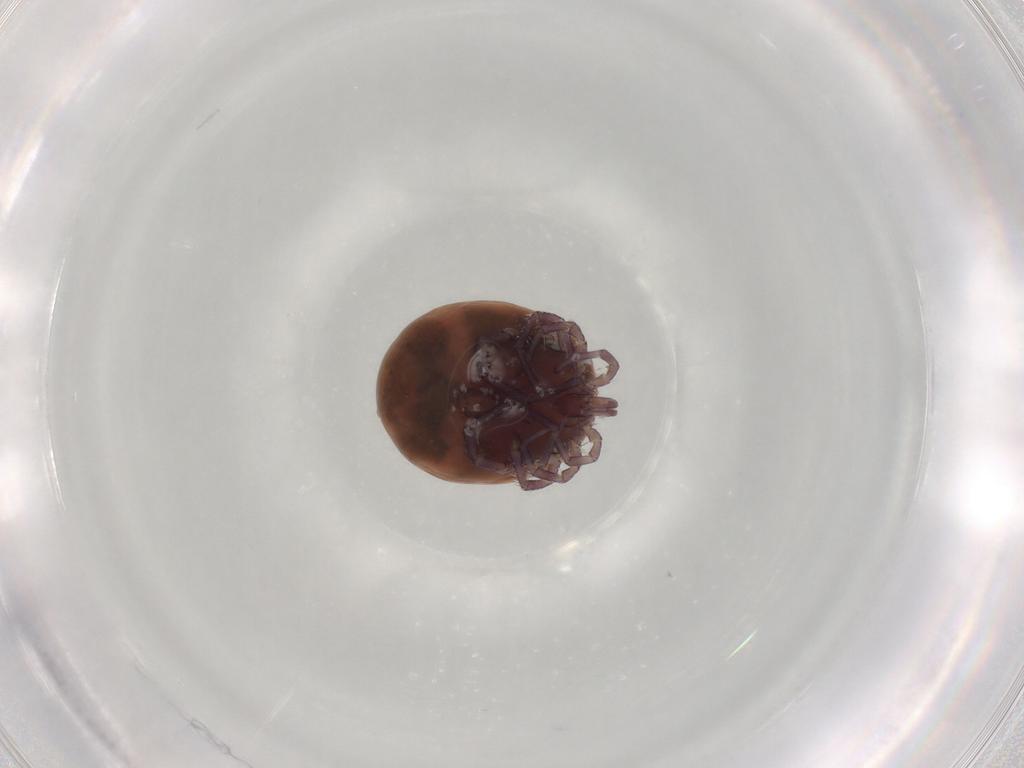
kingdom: Animalia
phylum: Arthropoda
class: Arachnida
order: Trombidiformes
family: Lebertiidae
